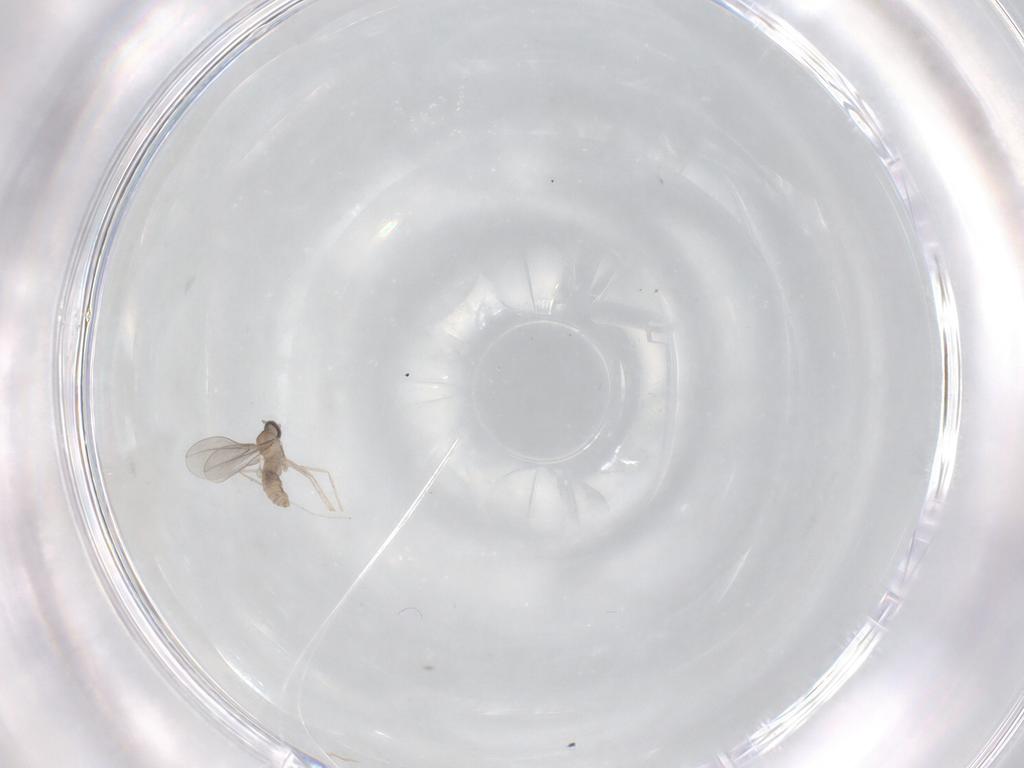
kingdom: Animalia
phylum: Arthropoda
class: Insecta
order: Diptera
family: Cecidomyiidae
